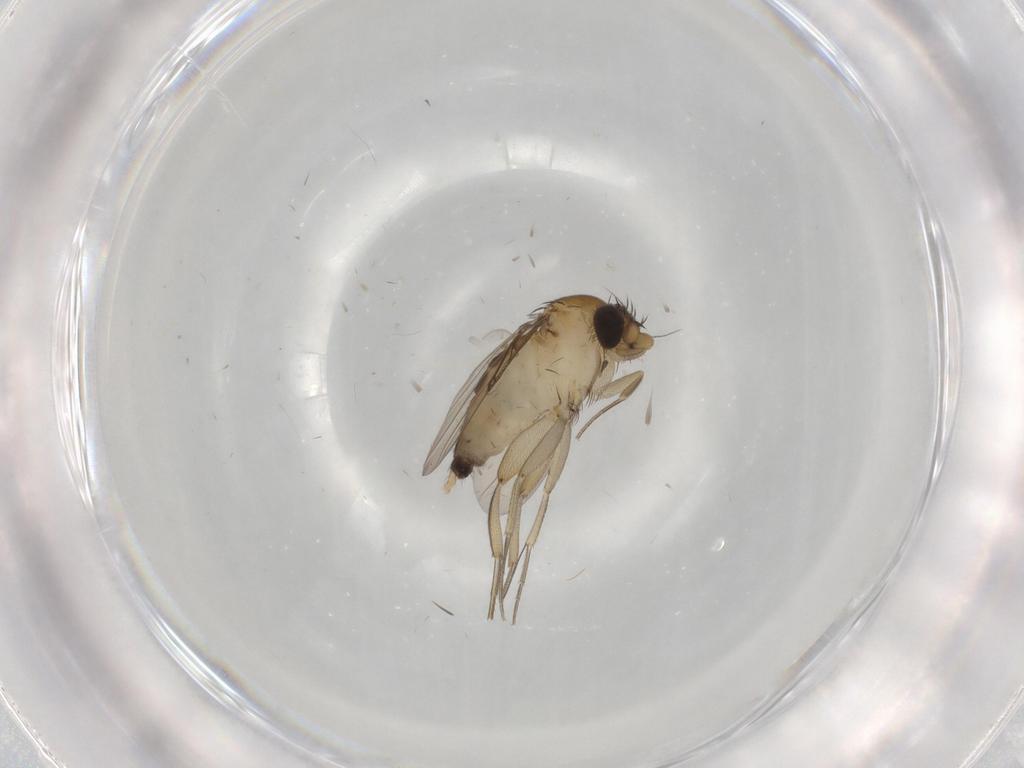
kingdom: Animalia
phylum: Arthropoda
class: Insecta
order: Diptera
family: Phoridae
